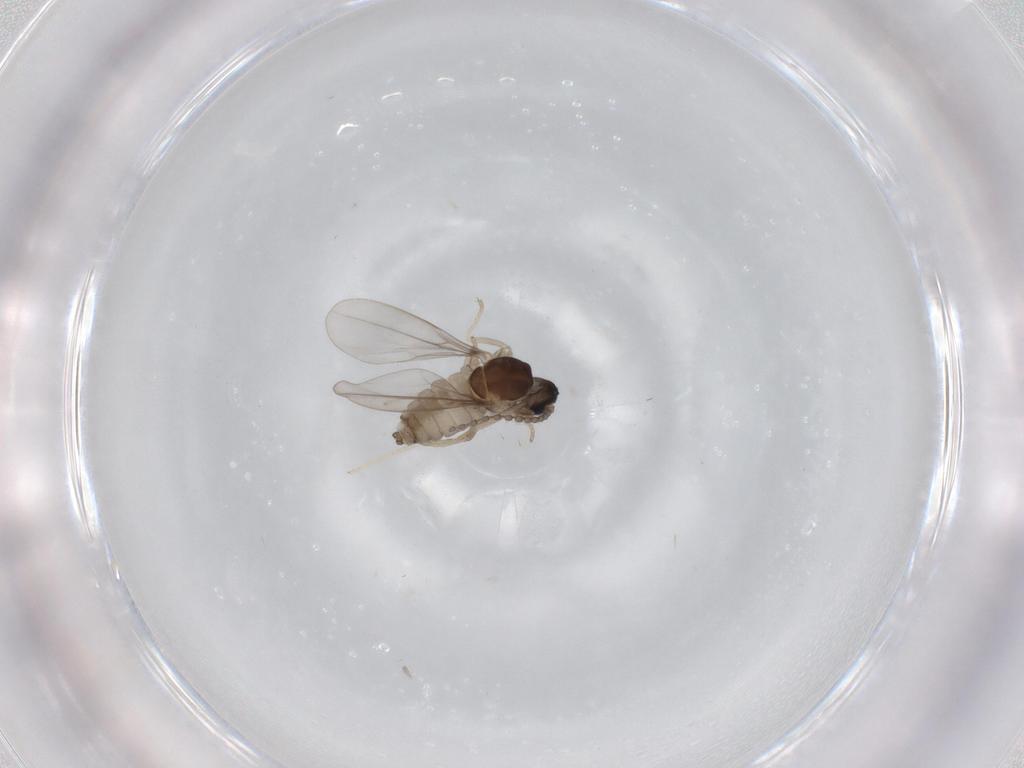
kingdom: Animalia
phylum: Arthropoda
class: Insecta
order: Diptera
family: Cecidomyiidae
